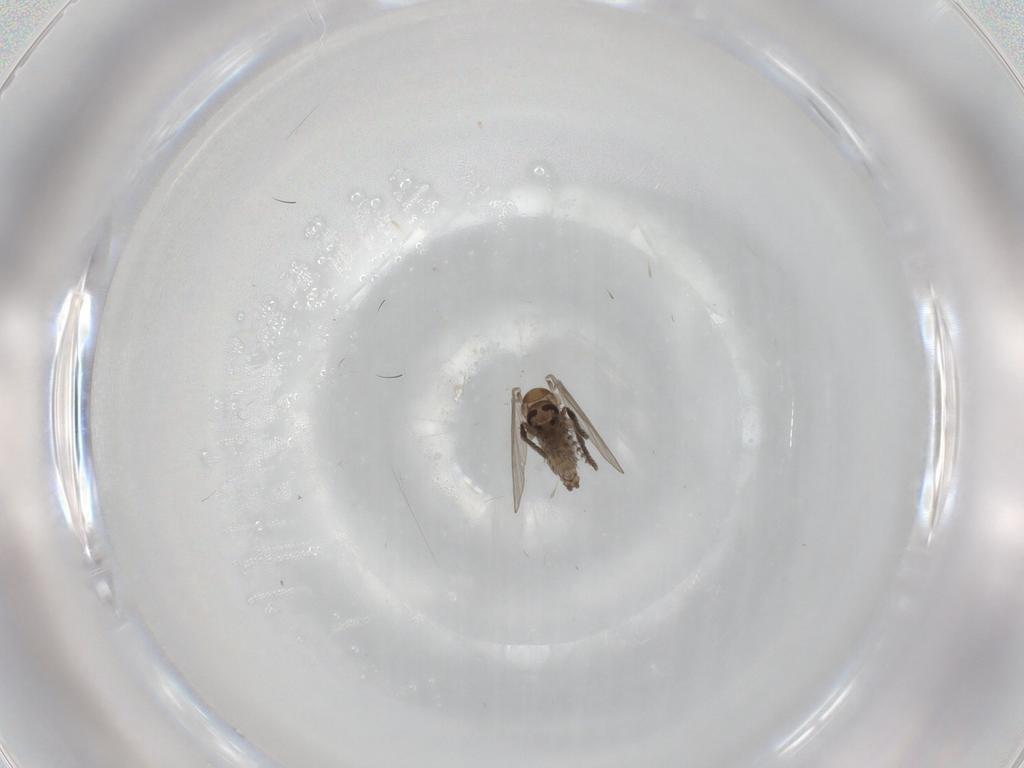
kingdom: Animalia
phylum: Arthropoda
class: Insecta
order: Diptera
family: Psychodidae
